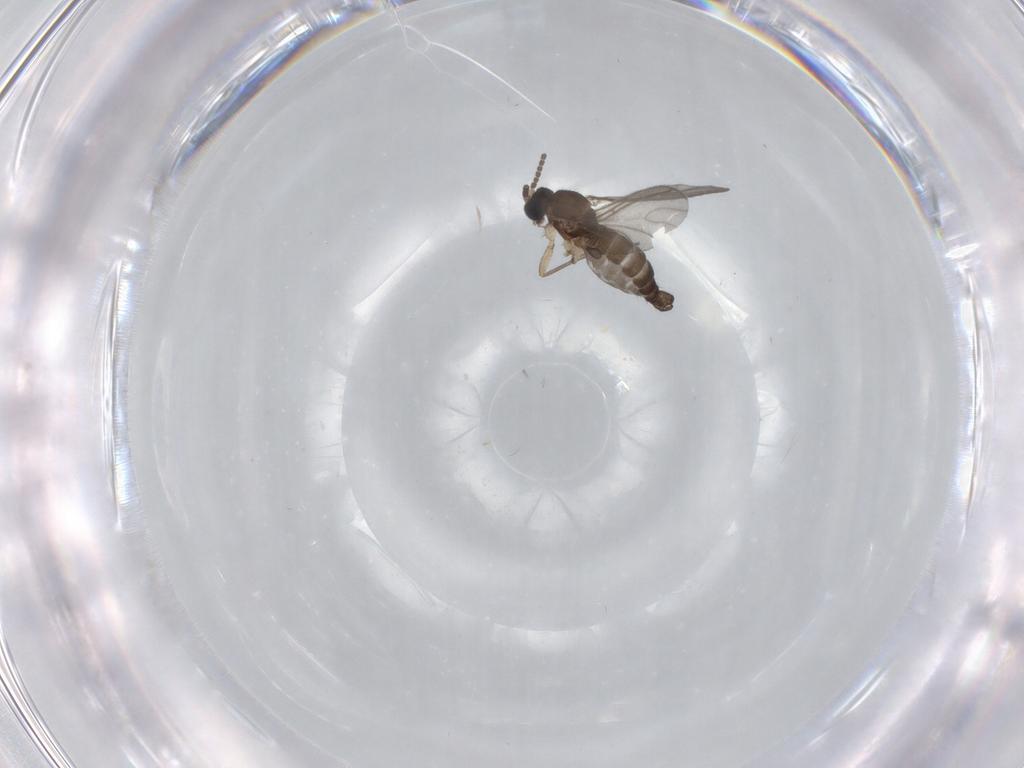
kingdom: Animalia
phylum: Arthropoda
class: Insecta
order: Diptera
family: Sciaridae
